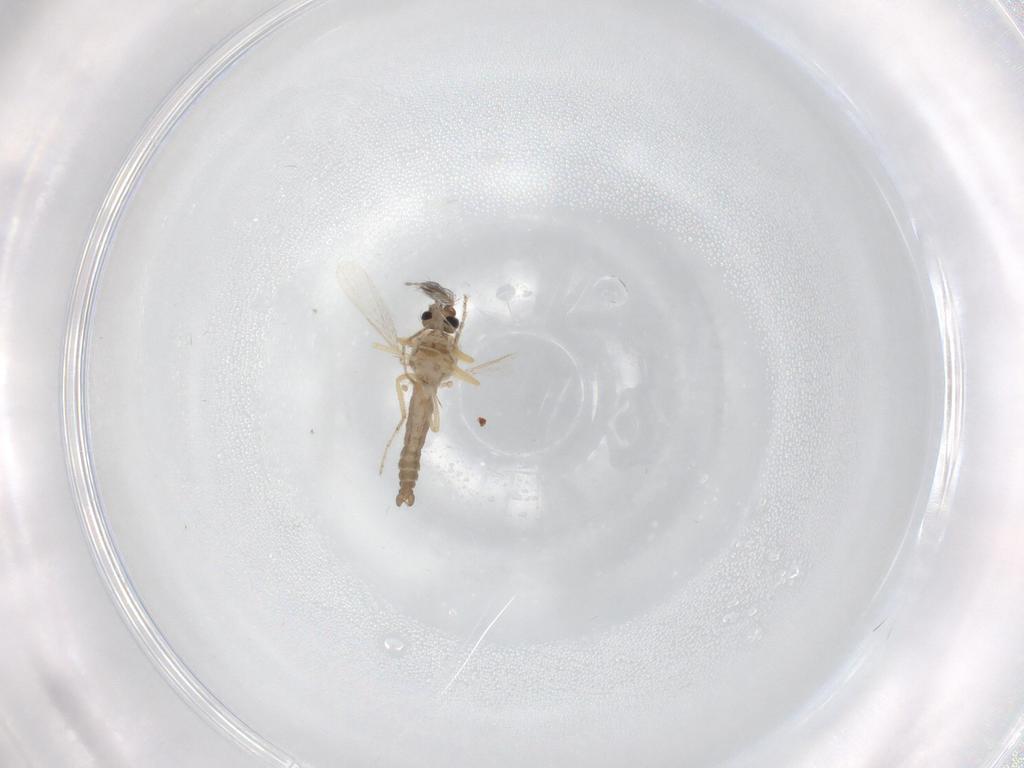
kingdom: Animalia
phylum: Arthropoda
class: Insecta
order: Diptera
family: Ceratopogonidae
